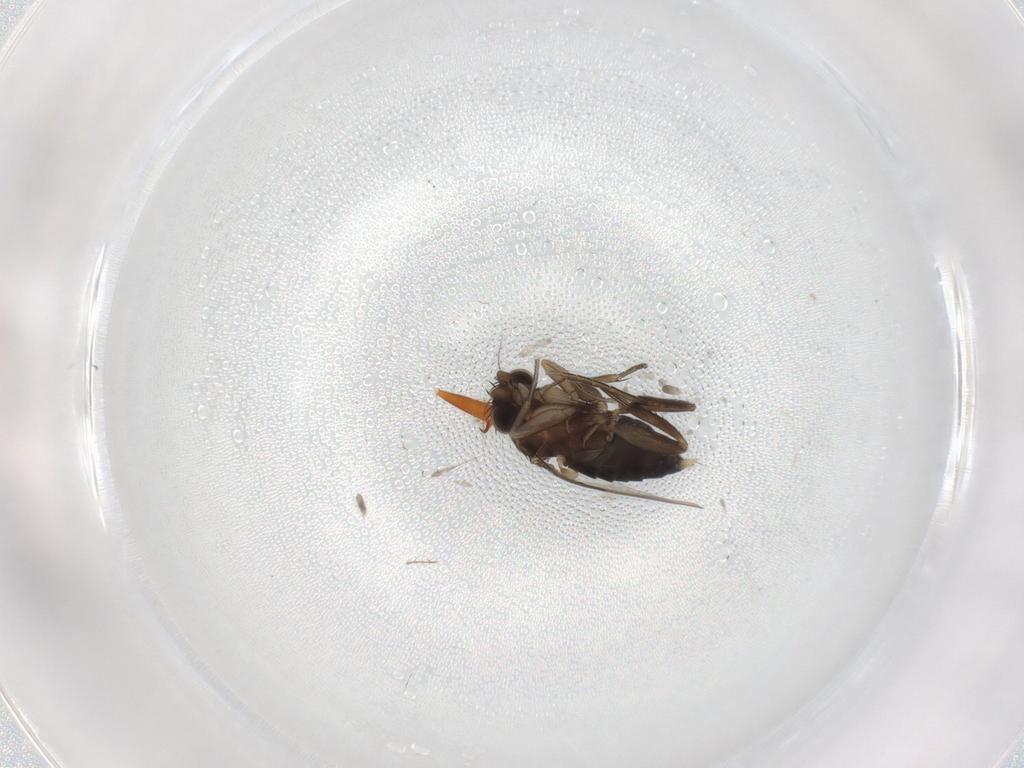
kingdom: Animalia
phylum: Arthropoda
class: Insecta
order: Diptera
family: Phoridae
